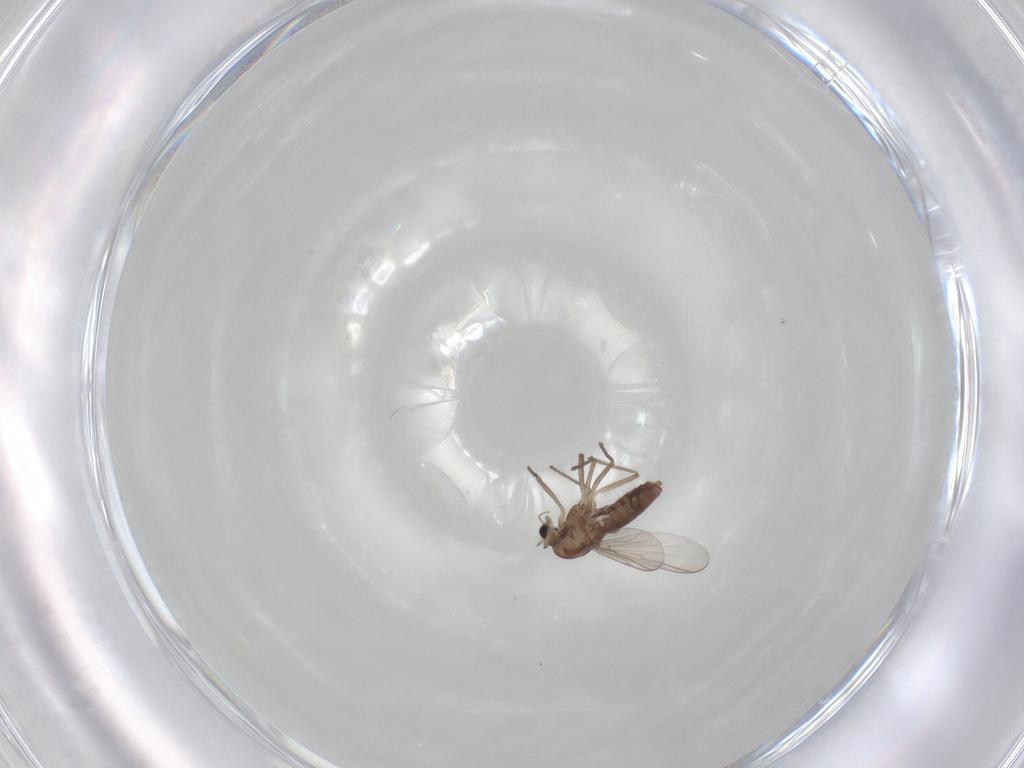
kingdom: Animalia
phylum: Arthropoda
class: Insecta
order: Diptera
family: Chironomidae
